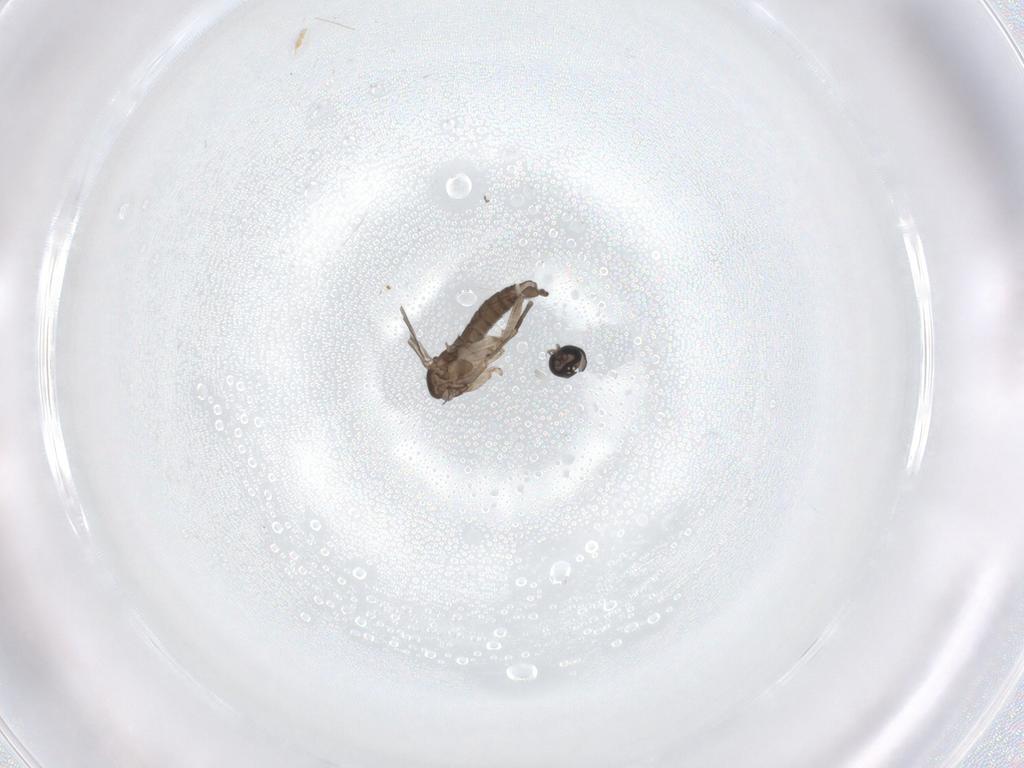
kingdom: Animalia
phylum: Arthropoda
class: Insecta
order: Diptera
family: Sciaridae
